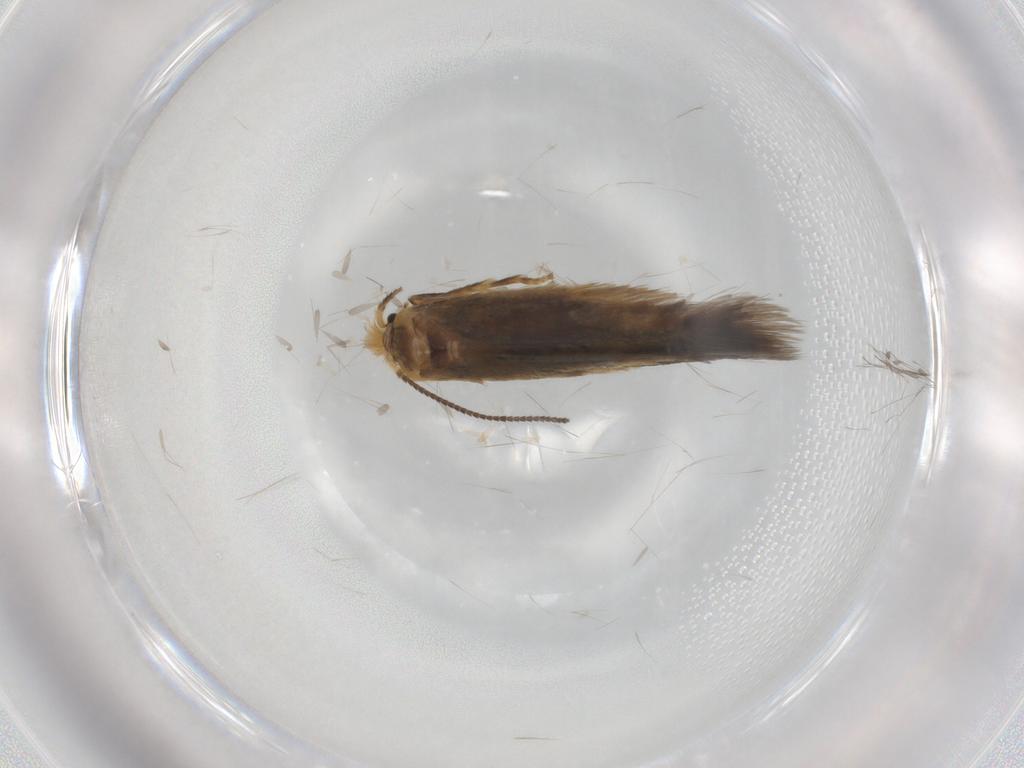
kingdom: Animalia
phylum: Arthropoda
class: Insecta
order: Lepidoptera
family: Nepticulidae
